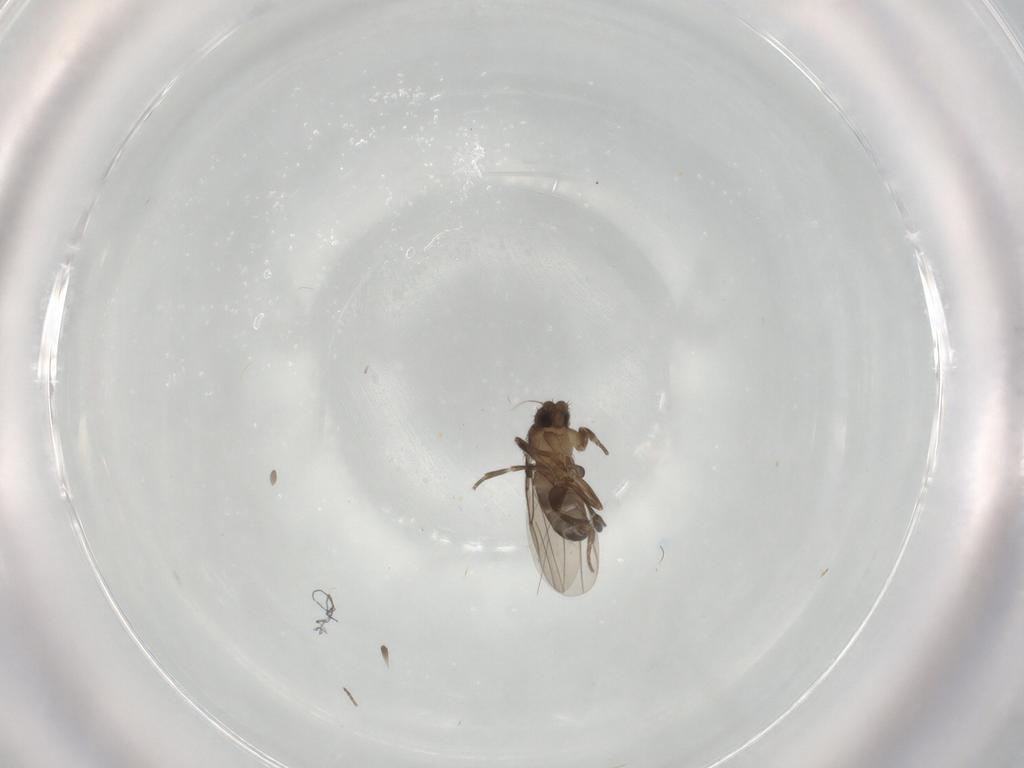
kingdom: Animalia
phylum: Arthropoda
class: Insecta
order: Diptera
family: Phoridae
